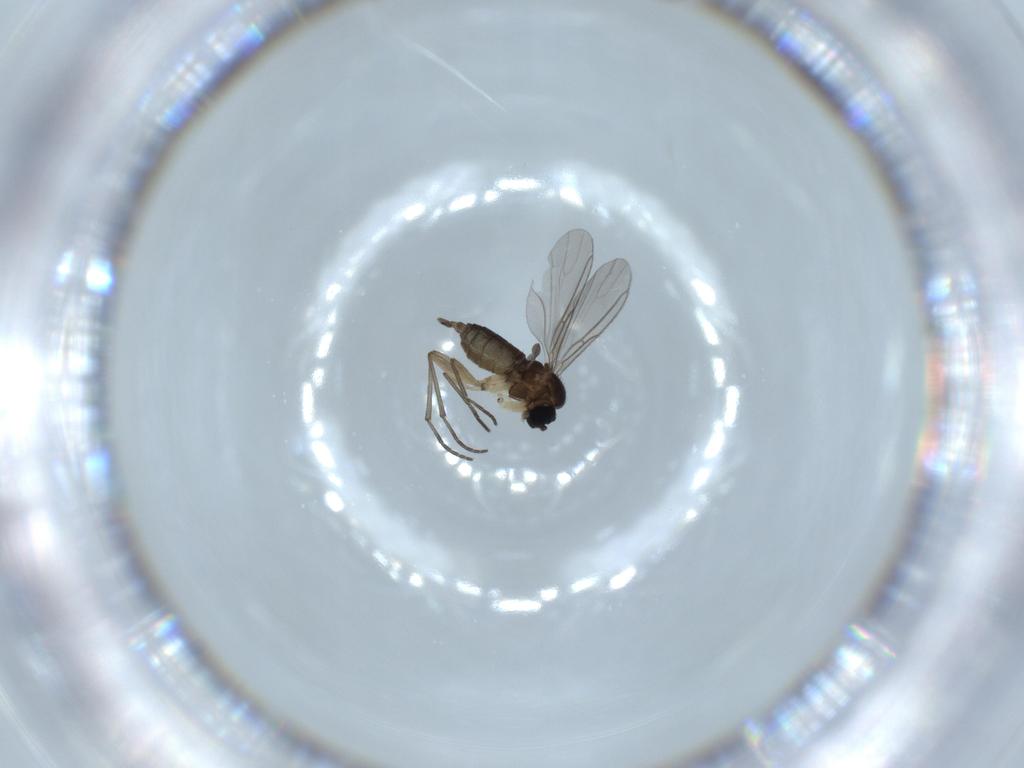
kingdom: Animalia
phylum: Arthropoda
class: Insecta
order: Diptera
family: Sciaridae
